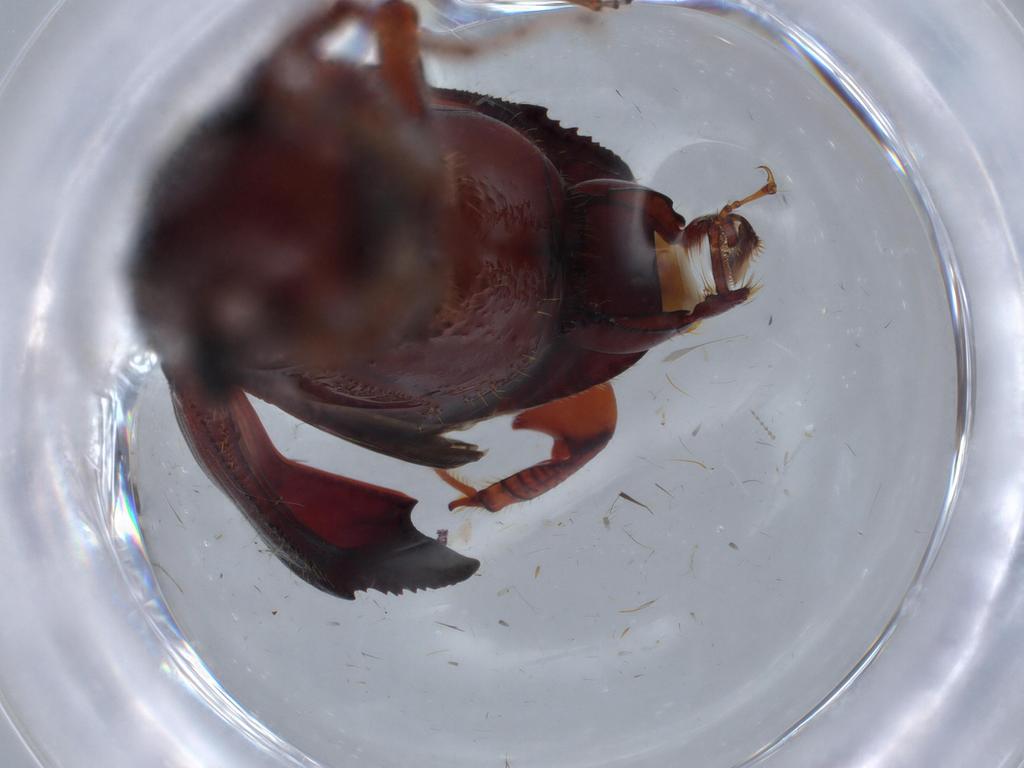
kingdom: Animalia
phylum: Arthropoda
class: Insecta
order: Coleoptera
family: Curculionidae
